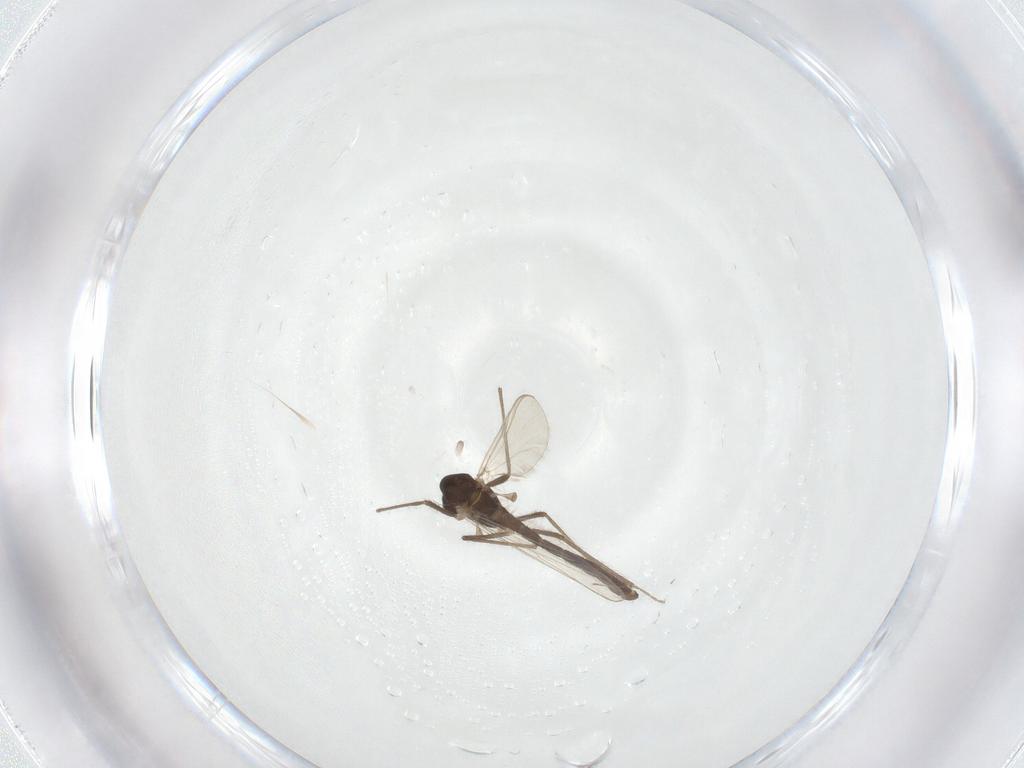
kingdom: Animalia
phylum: Arthropoda
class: Insecta
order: Diptera
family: Chironomidae
